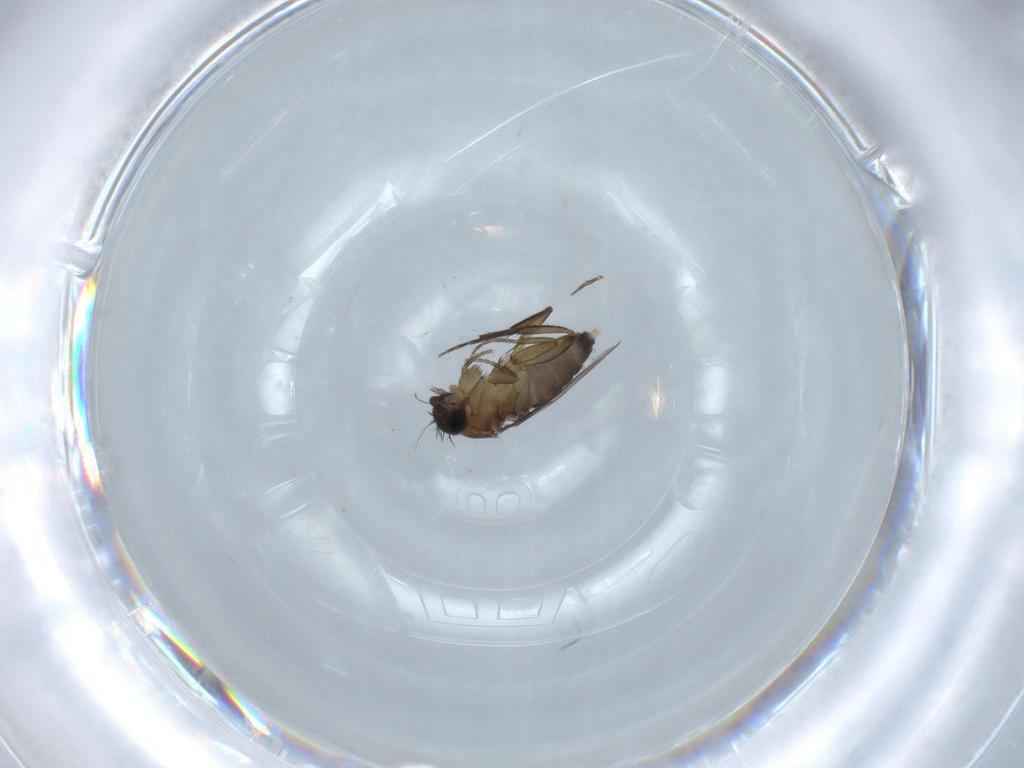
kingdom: Animalia
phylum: Arthropoda
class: Insecta
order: Diptera
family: Phoridae
